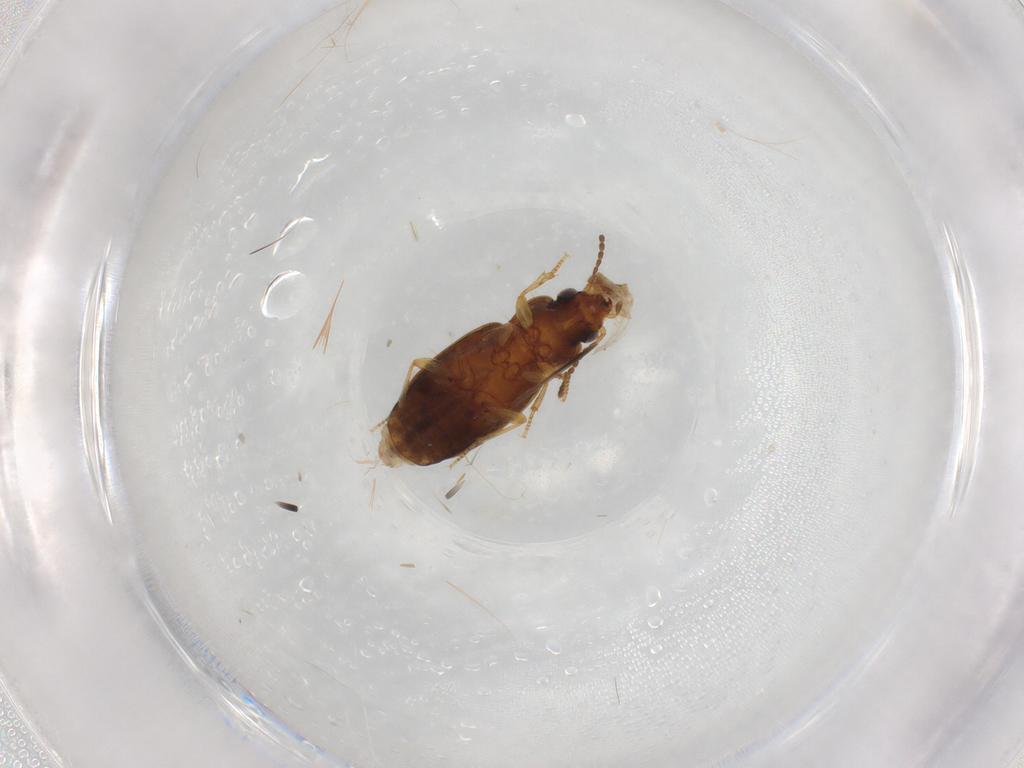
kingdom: Animalia
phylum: Arthropoda
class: Insecta
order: Coleoptera
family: Carabidae
